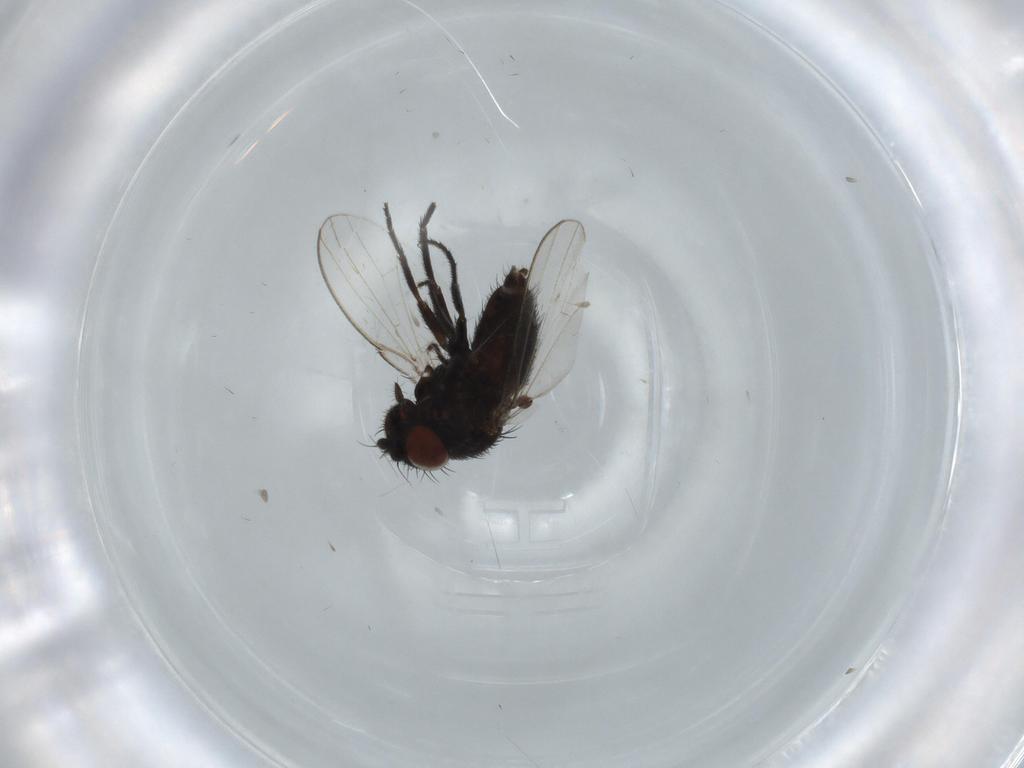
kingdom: Animalia
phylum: Arthropoda
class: Insecta
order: Diptera
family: Milichiidae
